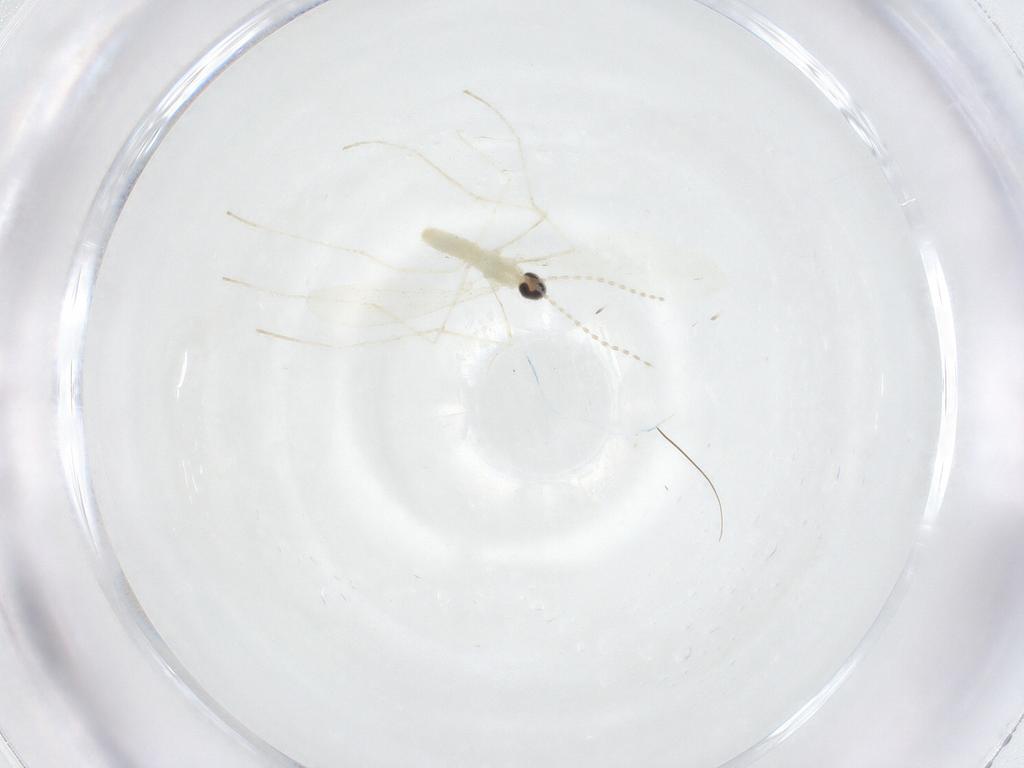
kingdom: Animalia
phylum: Arthropoda
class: Insecta
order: Diptera
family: Cecidomyiidae
